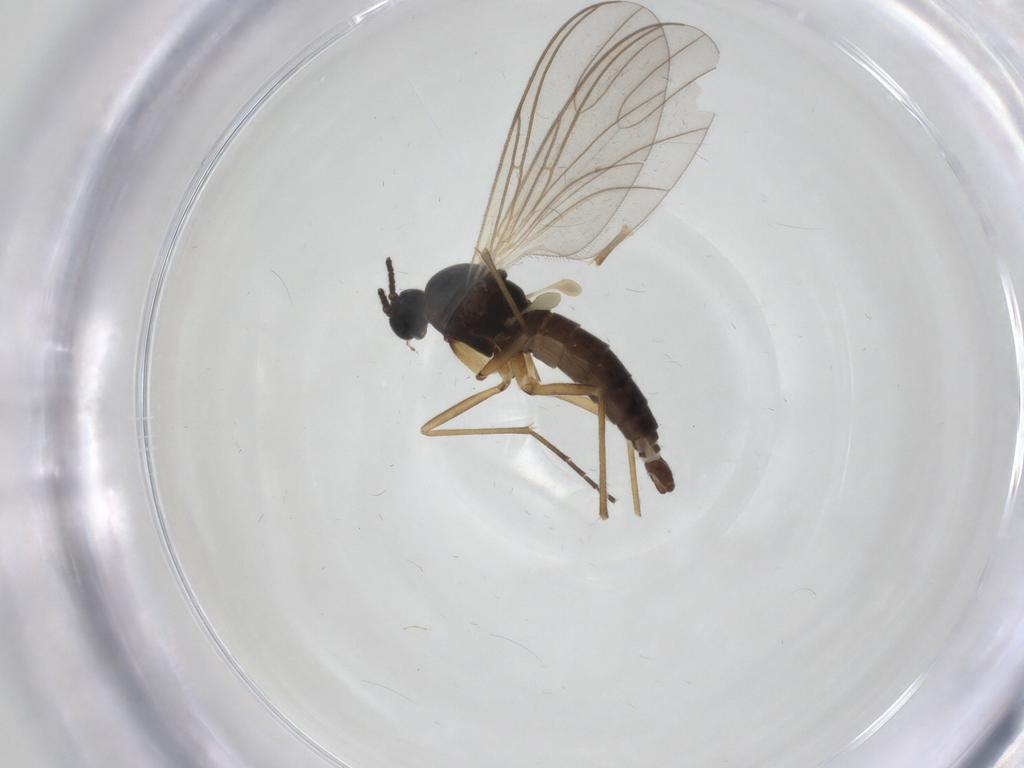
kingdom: Animalia
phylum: Arthropoda
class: Insecta
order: Diptera
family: Sciaridae
